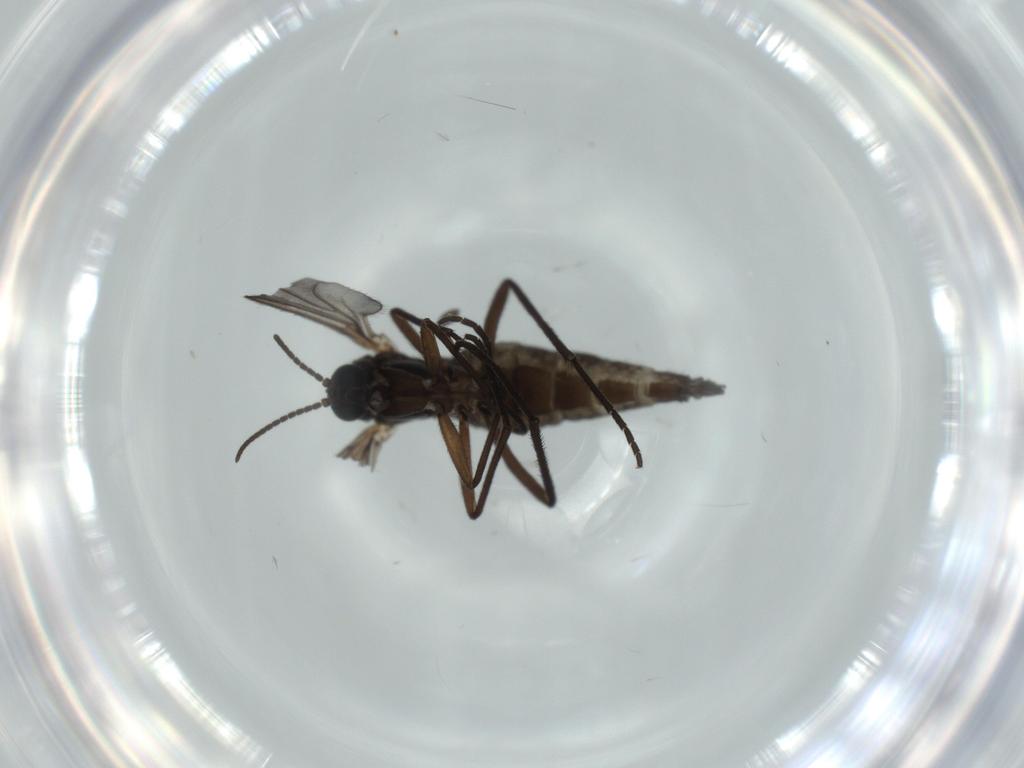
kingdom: Animalia
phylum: Arthropoda
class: Insecta
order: Diptera
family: Sciaridae
